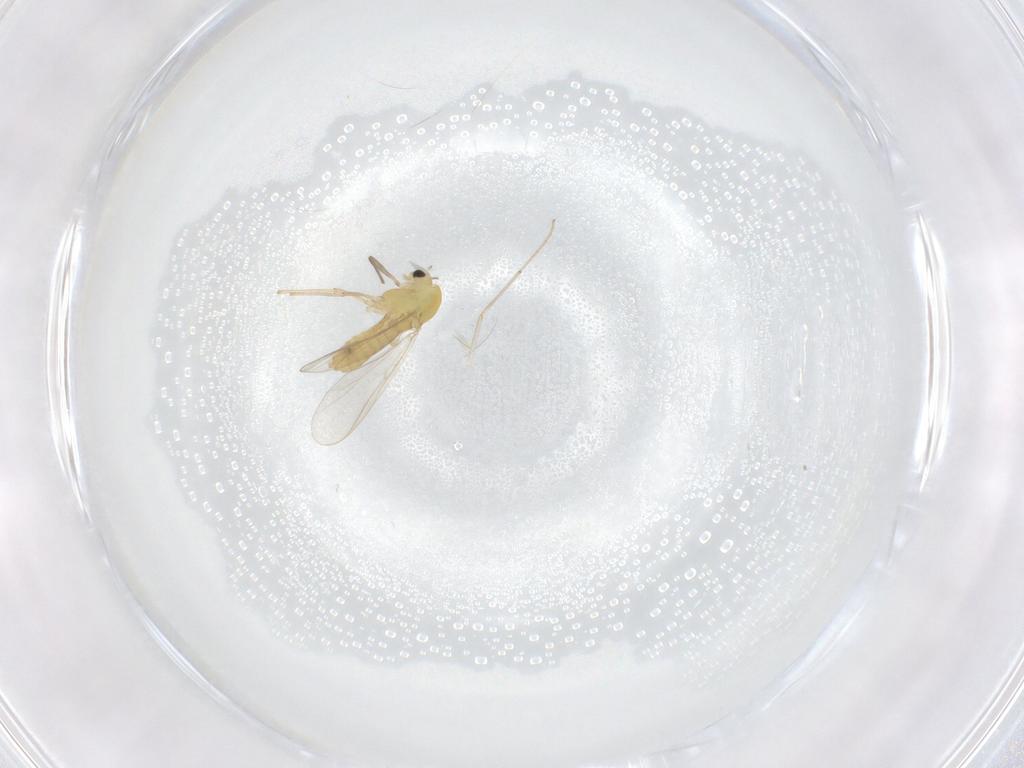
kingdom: Animalia
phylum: Arthropoda
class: Insecta
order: Diptera
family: Chironomidae
